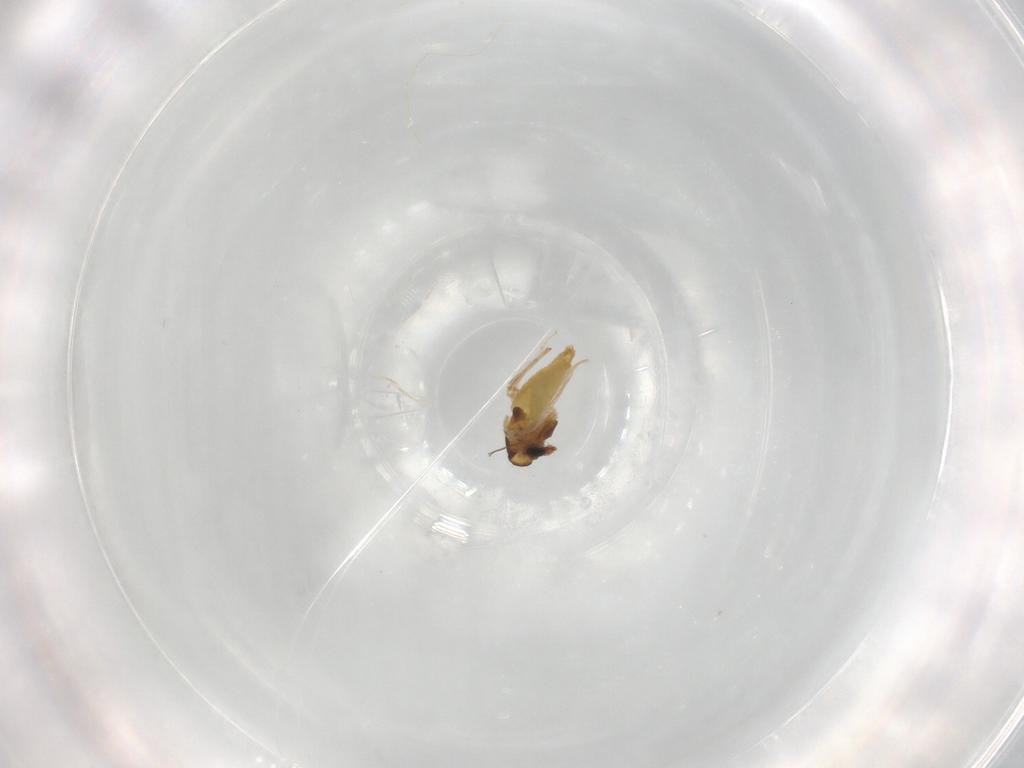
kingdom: Animalia
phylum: Arthropoda
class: Insecta
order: Diptera
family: Chironomidae
